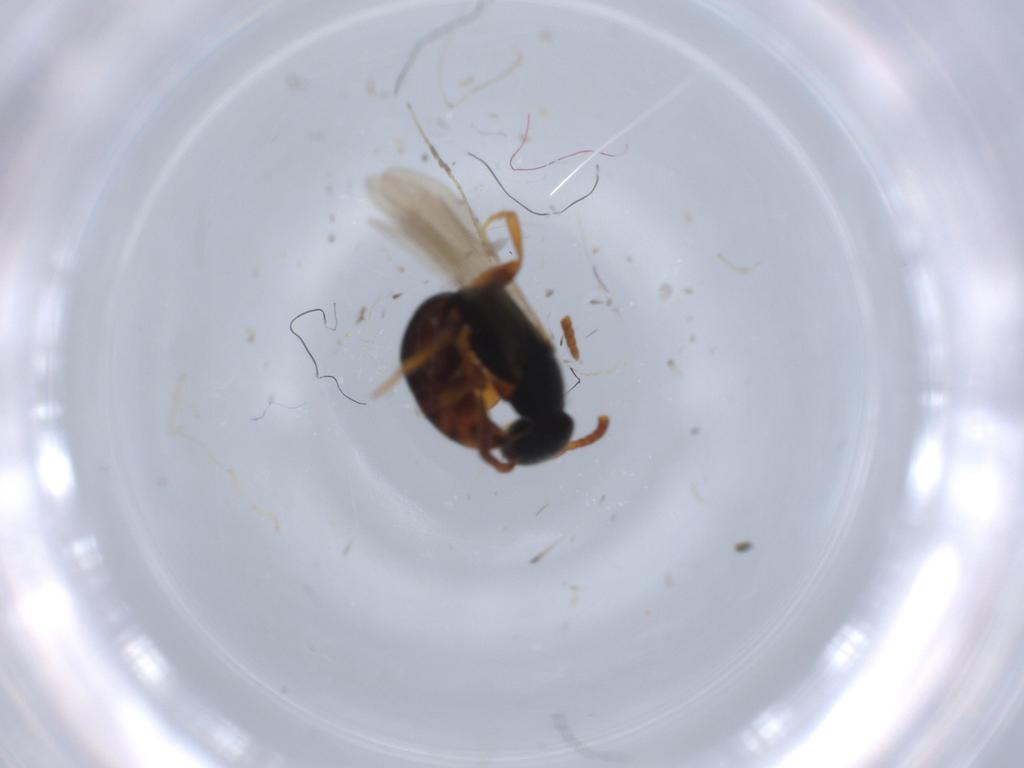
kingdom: Animalia
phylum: Arthropoda
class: Insecta
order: Hymenoptera
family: Bethylidae
